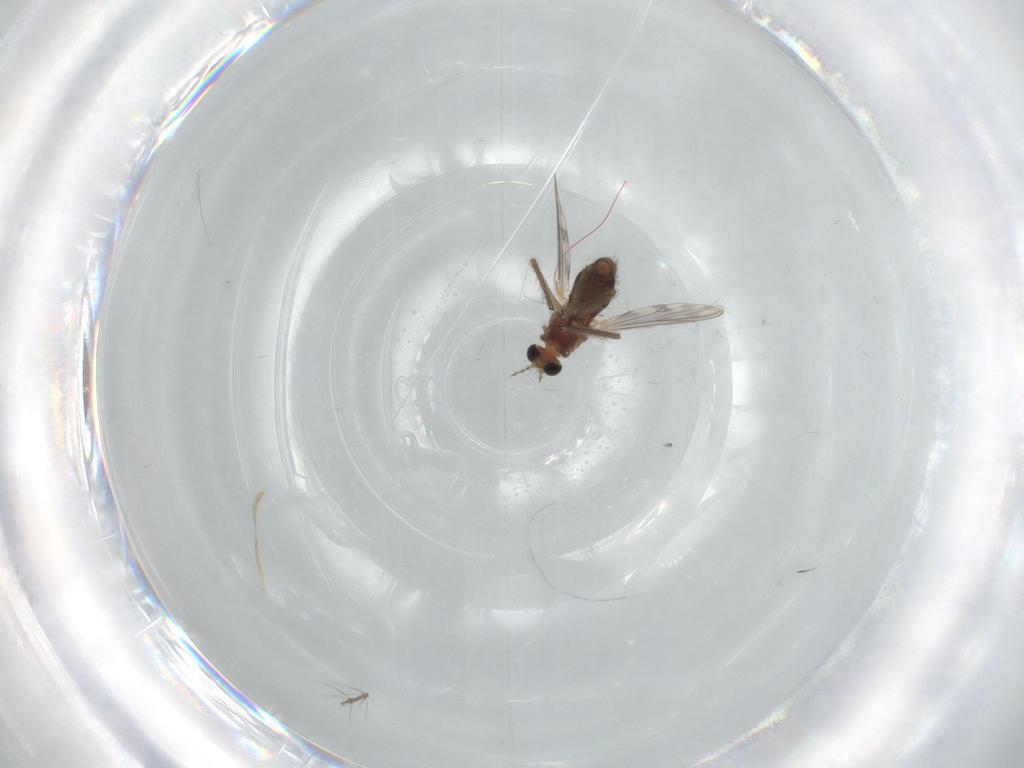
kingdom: Animalia
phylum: Arthropoda
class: Insecta
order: Diptera
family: Chironomidae
